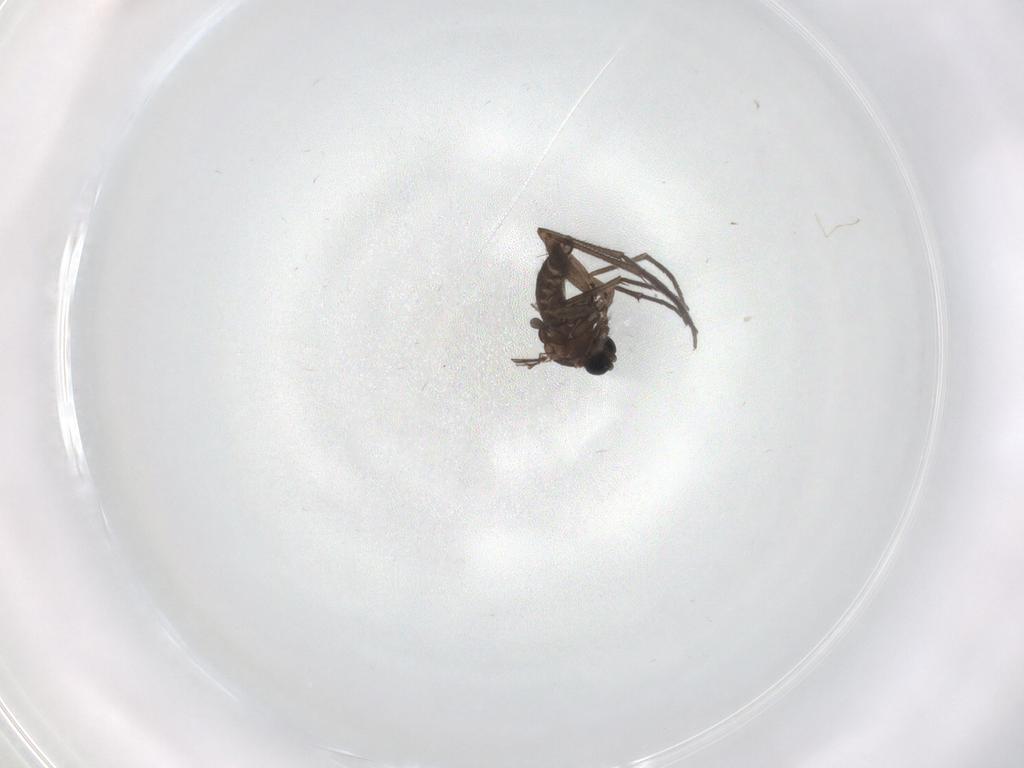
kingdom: Animalia
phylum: Arthropoda
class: Insecta
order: Diptera
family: Sciaridae
